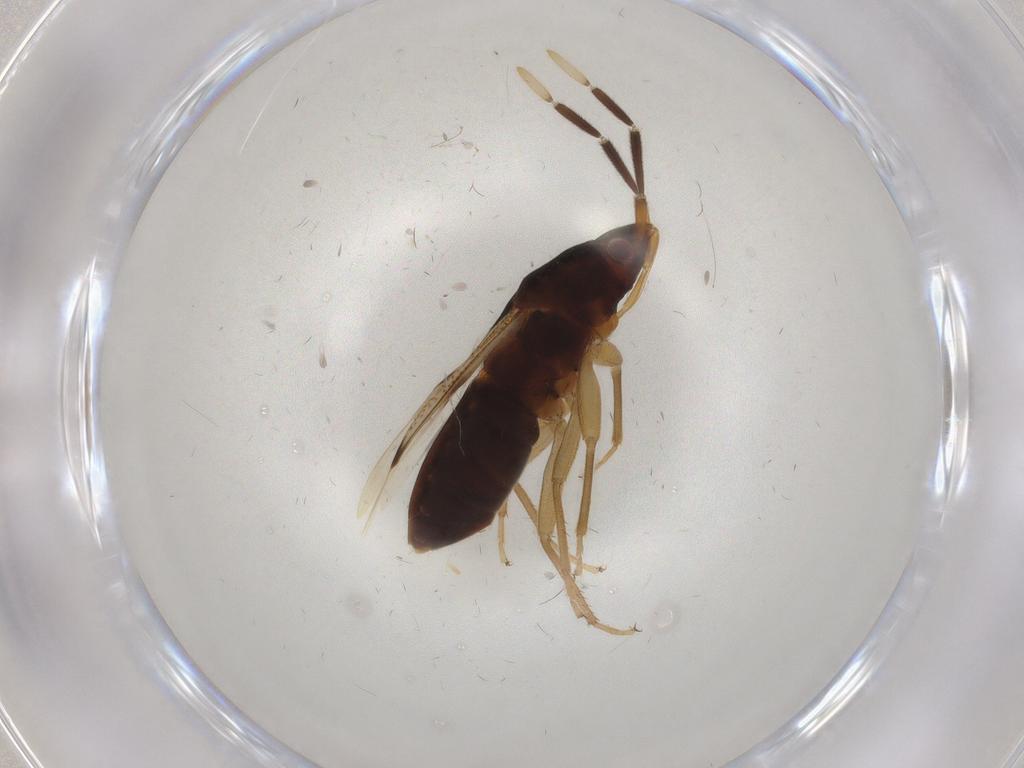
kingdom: Animalia
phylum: Arthropoda
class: Insecta
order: Hemiptera
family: Rhyparochromidae
